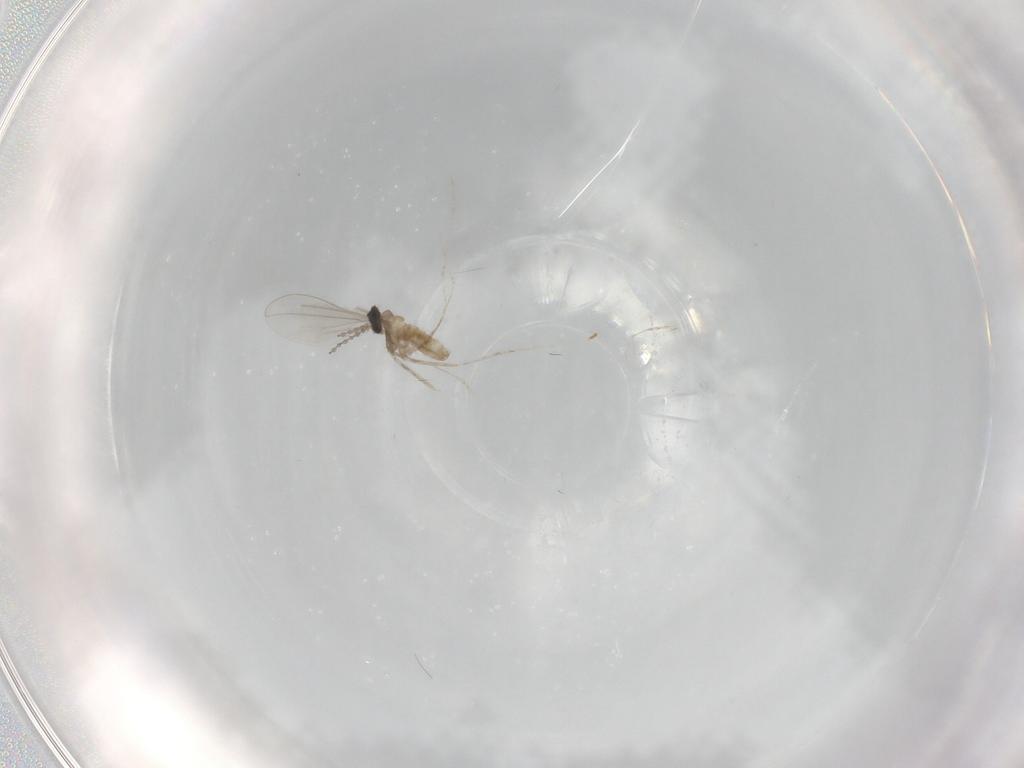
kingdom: Animalia
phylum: Arthropoda
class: Insecta
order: Diptera
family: Cecidomyiidae
